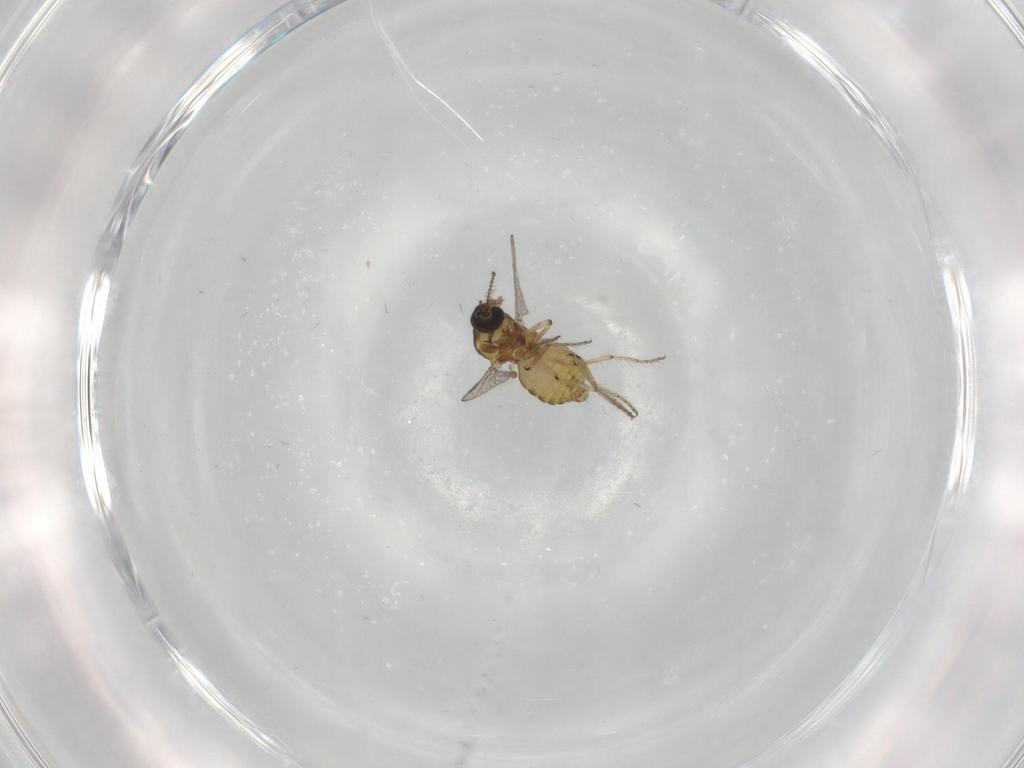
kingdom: Animalia
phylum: Arthropoda
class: Insecta
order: Diptera
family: Ceratopogonidae
